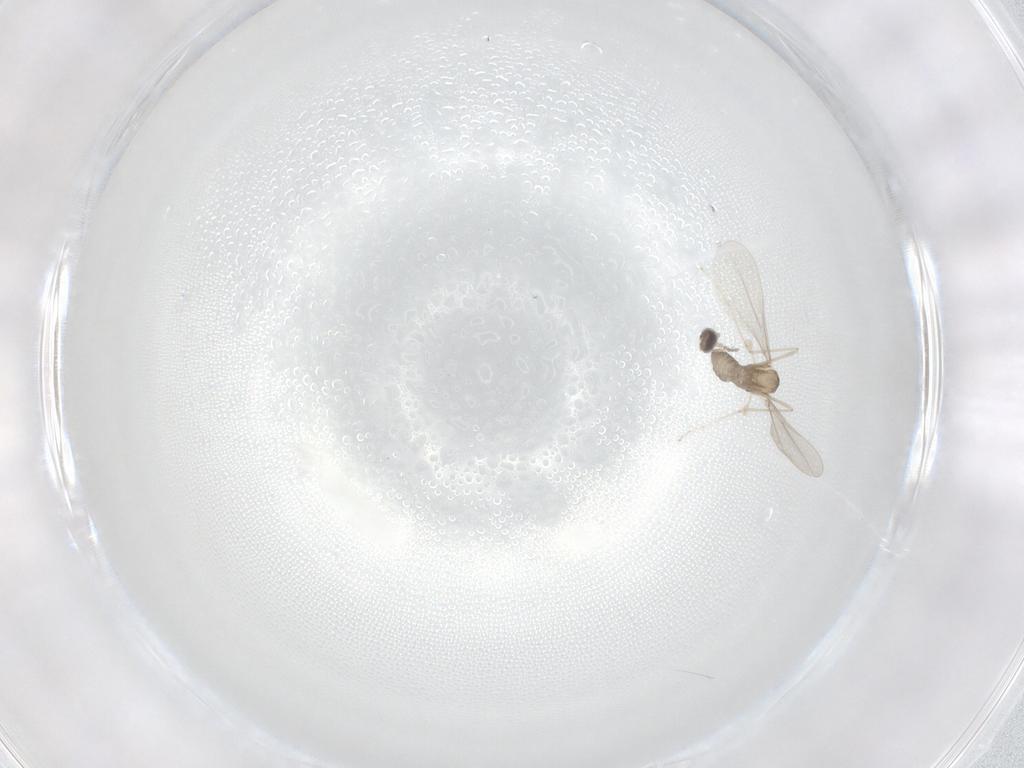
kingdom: Animalia
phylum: Arthropoda
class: Insecta
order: Diptera
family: Cecidomyiidae
